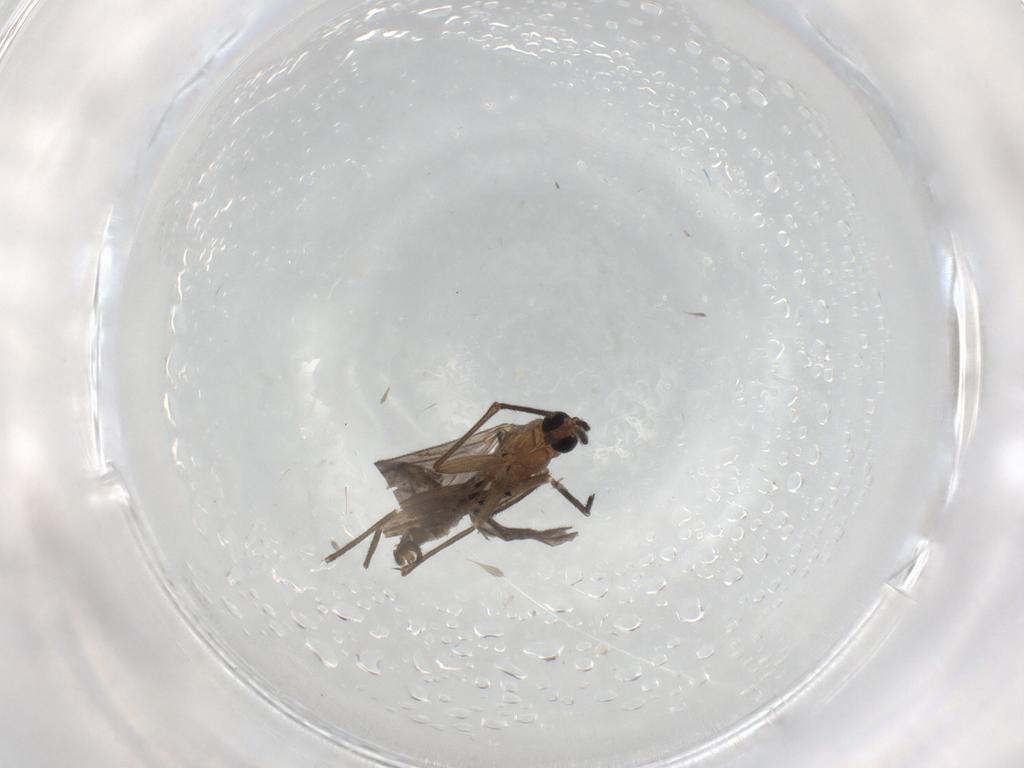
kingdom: Animalia
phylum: Arthropoda
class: Insecta
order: Diptera
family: Sciaridae
